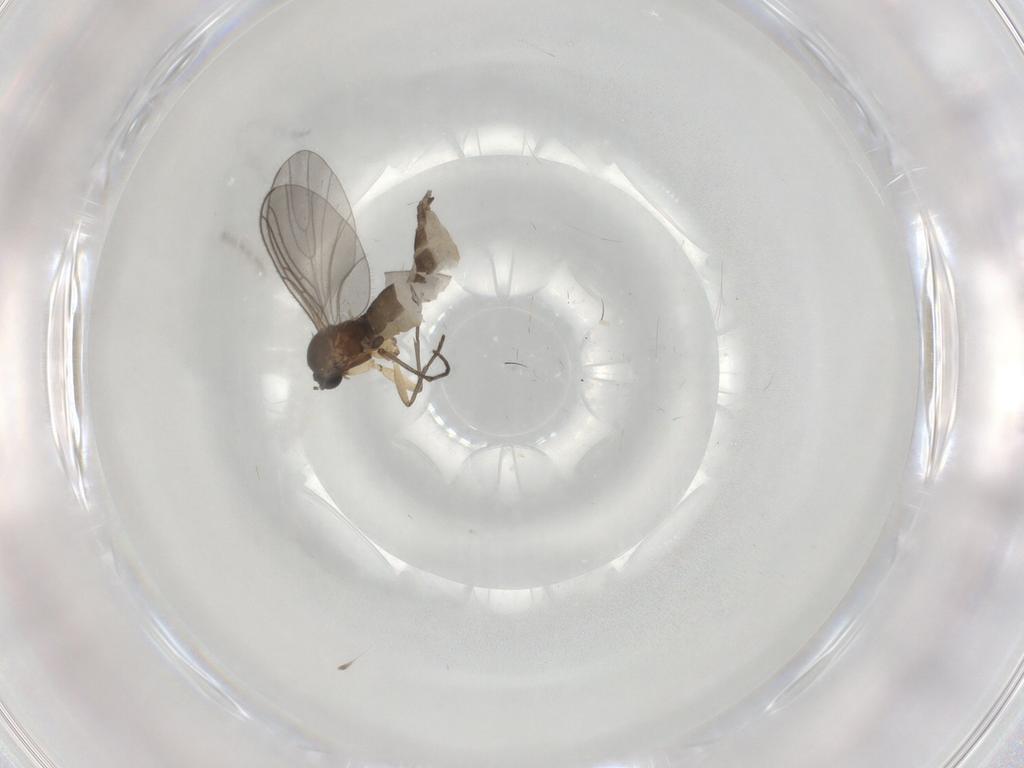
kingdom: Animalia
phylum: Arthropoda
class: Insecta
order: Diptera
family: Sciaridae
